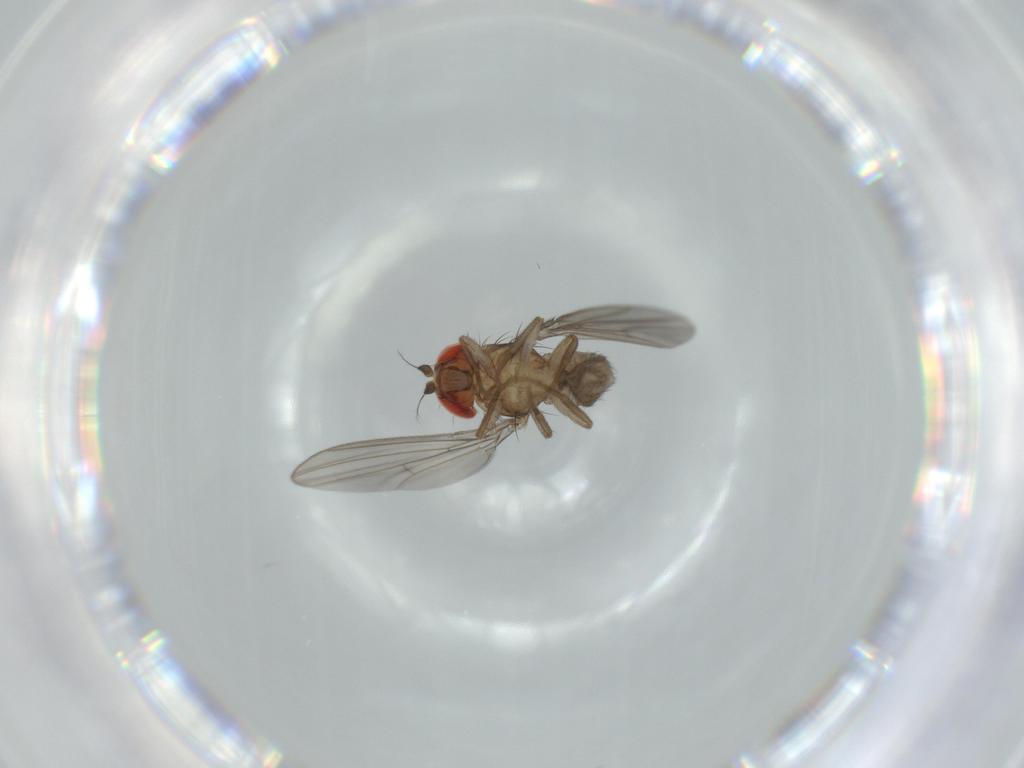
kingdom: Animalia
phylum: Arthropoda
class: Insecta
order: Diptera
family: Drosophilidae
